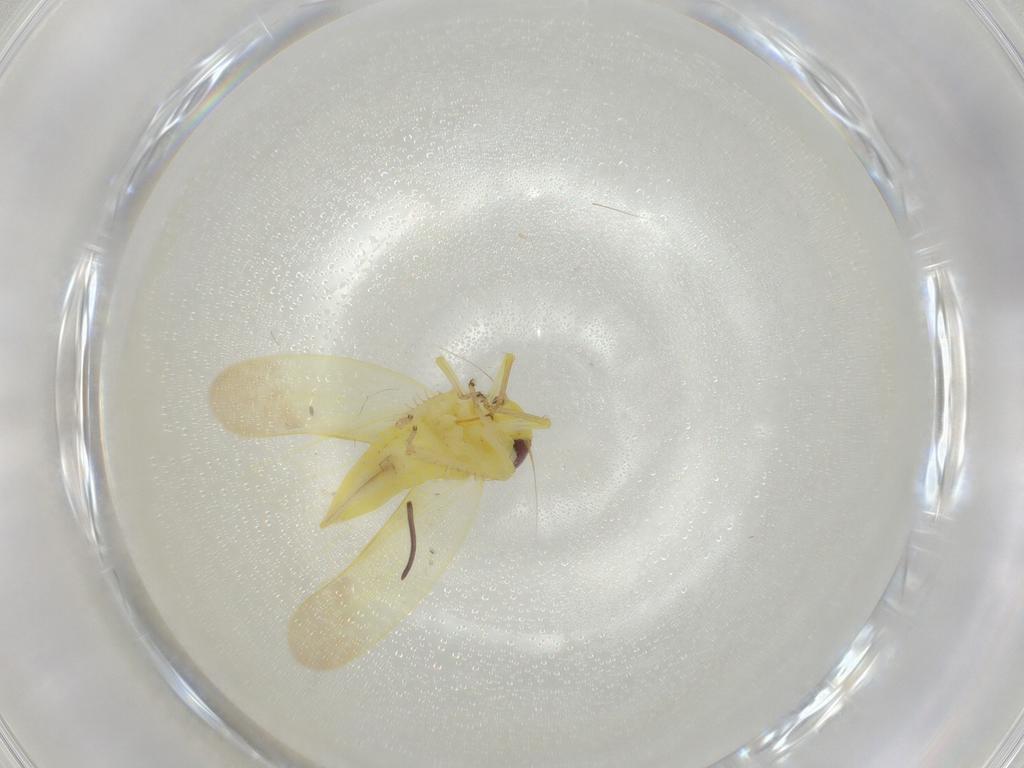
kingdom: Animalia
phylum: Arthropoda
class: Insecta
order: Hemiptera
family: Cicadellidae
